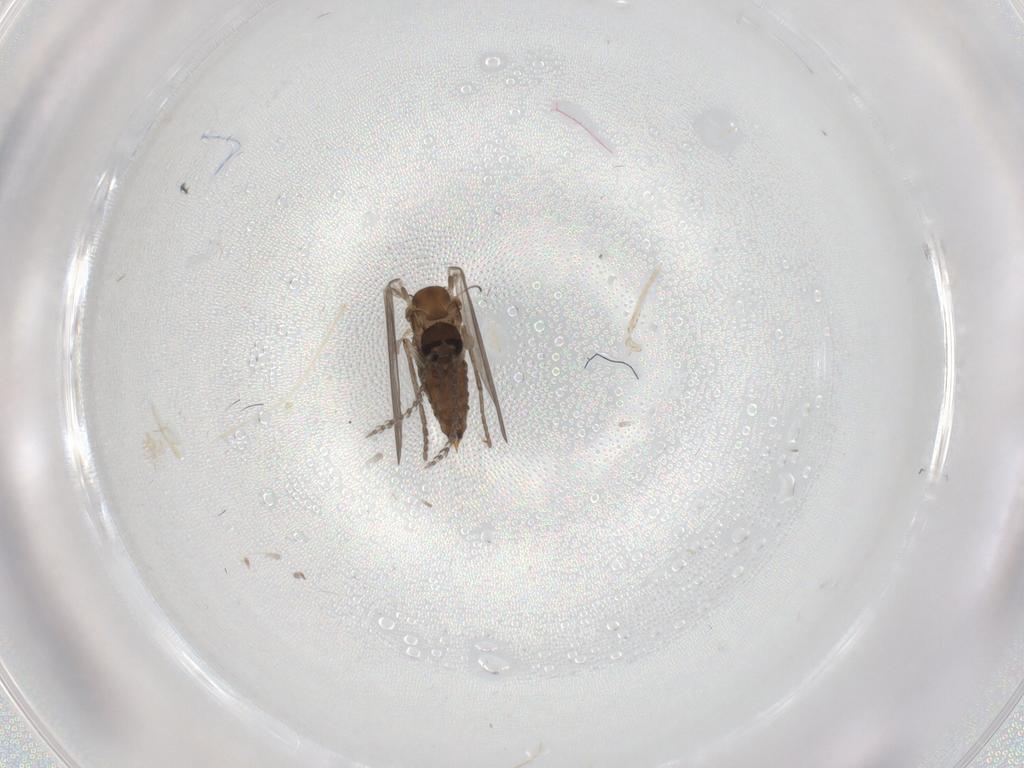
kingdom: Animalia
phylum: Arthropoda
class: Insecta
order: Diptera
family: Psychodidae
